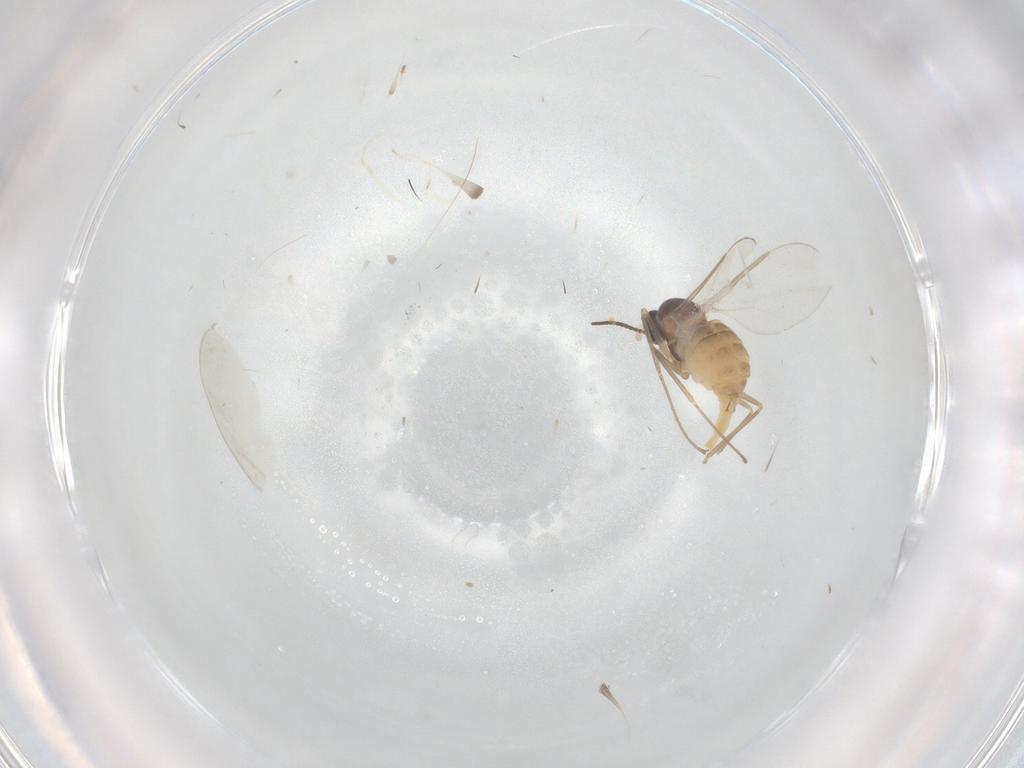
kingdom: Animalia
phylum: Arthropoda
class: Insecta
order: Diptera
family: Cecidomyiidae
